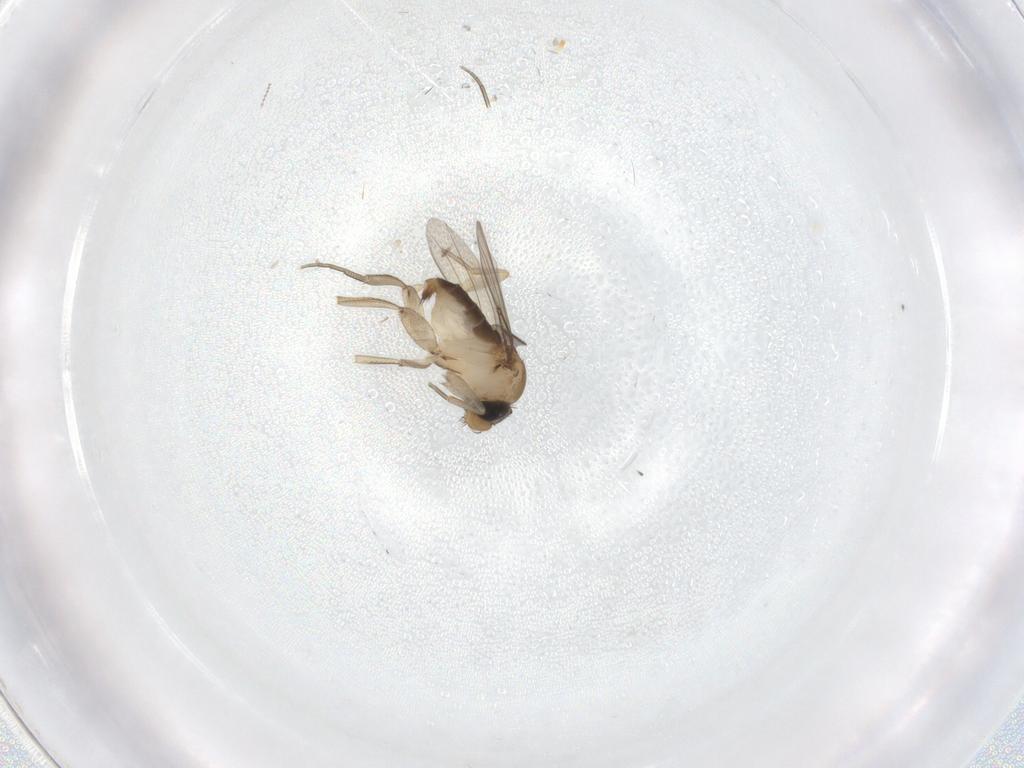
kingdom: Animalia
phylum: Arthropoda
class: Insecta
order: Diptera
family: Phoridae
